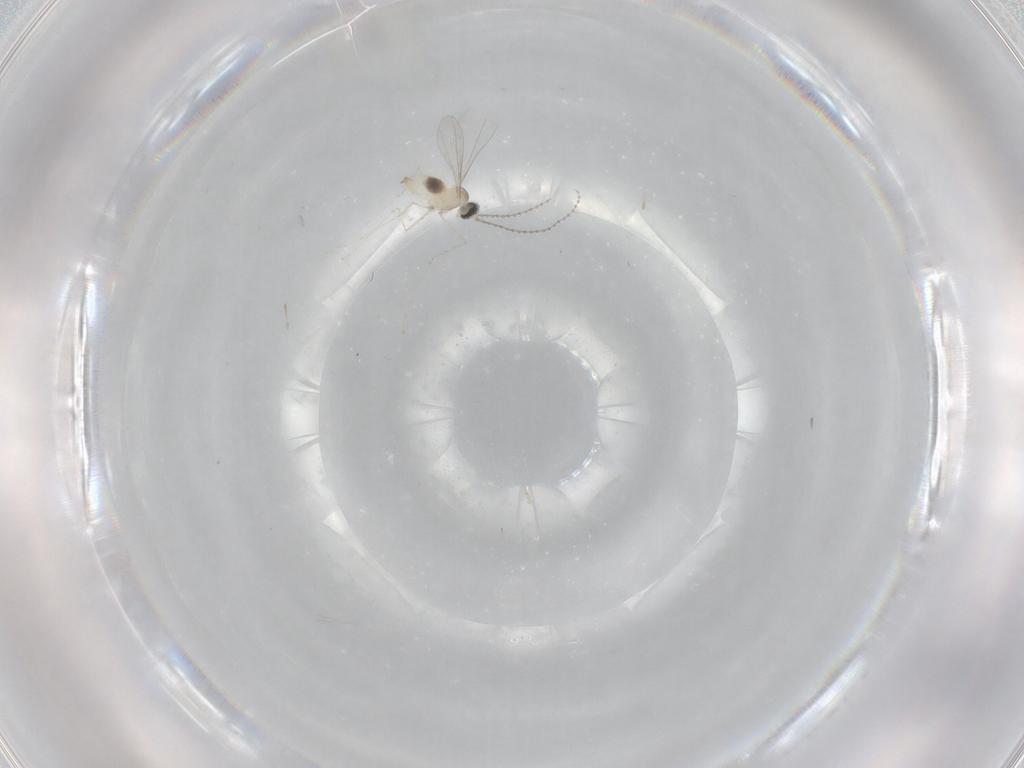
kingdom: Animalia
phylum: Arthropoda
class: Insecta
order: Diptera
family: Cecidomyiidae
